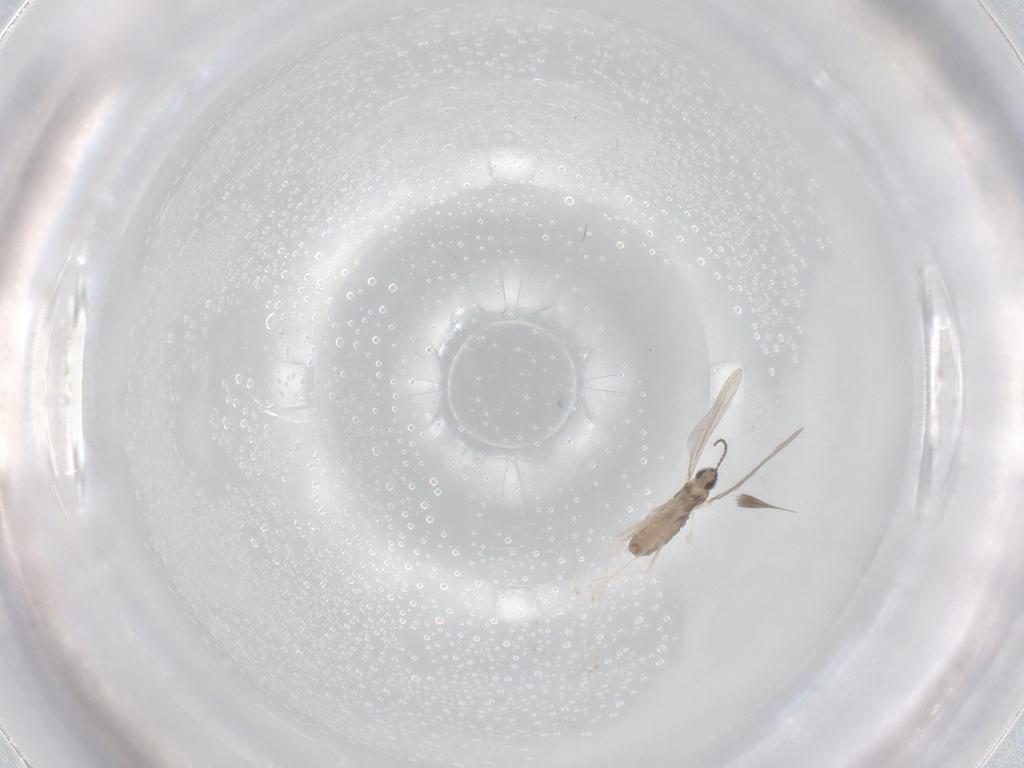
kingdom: Animalia
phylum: Arthropoda
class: Insecta
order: Diptera
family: Cecidomyiidae
